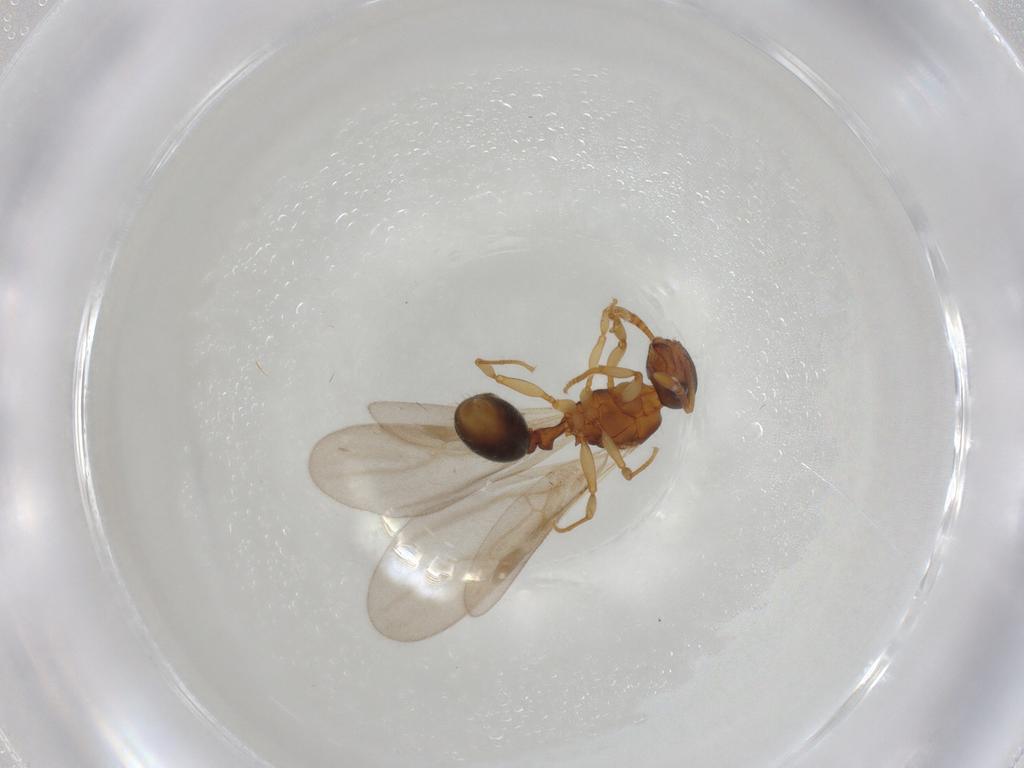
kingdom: Animalia
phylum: Arthropoda
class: Insecta
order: Hymenoptera
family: Formicidae
